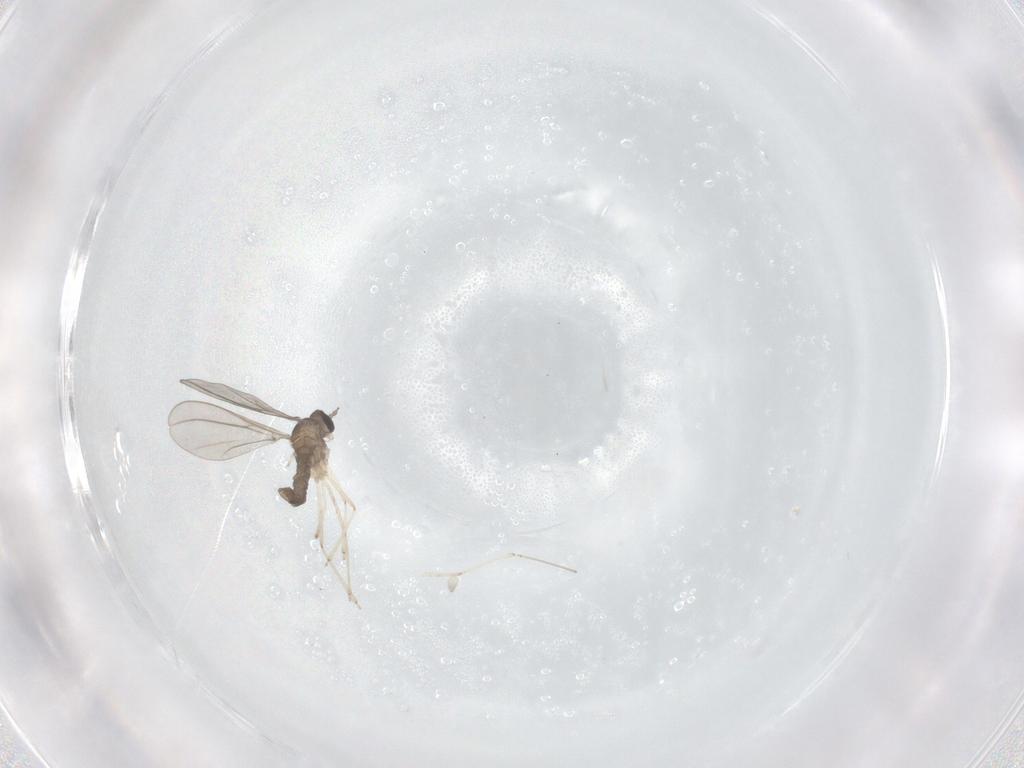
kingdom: Animalia
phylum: Arthropoda
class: Insecta
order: Diptera
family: Cecidomyiidae
